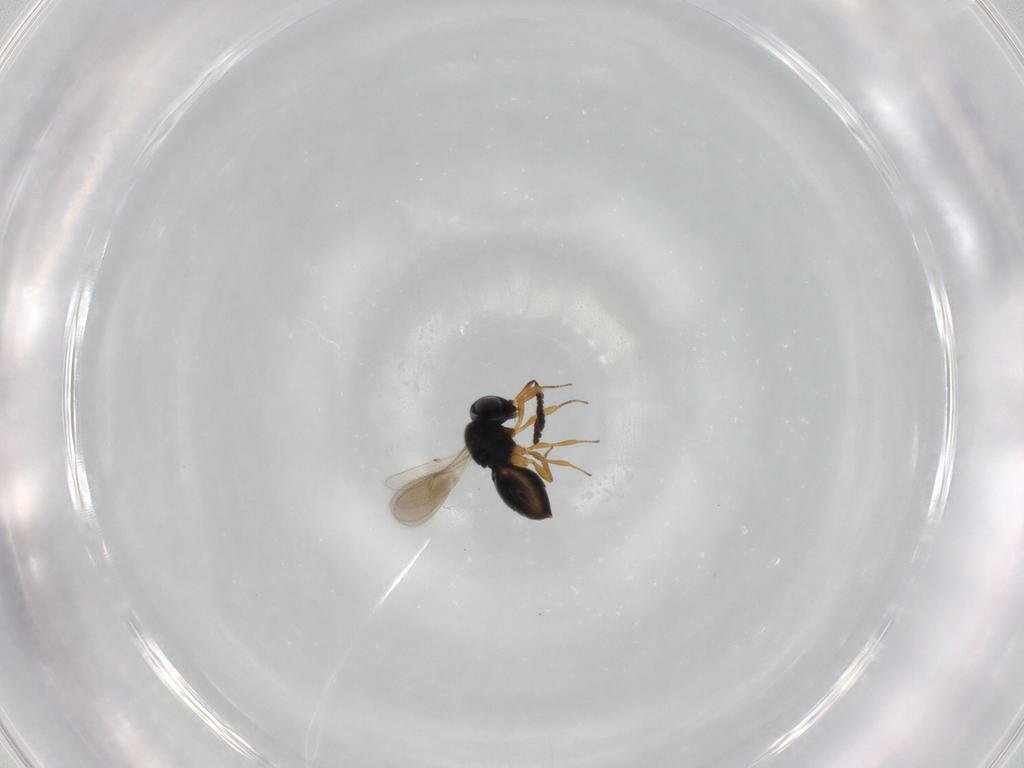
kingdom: Animalia
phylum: Arthropoda
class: Insecta
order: Hymenoptera
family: Scelionidae
